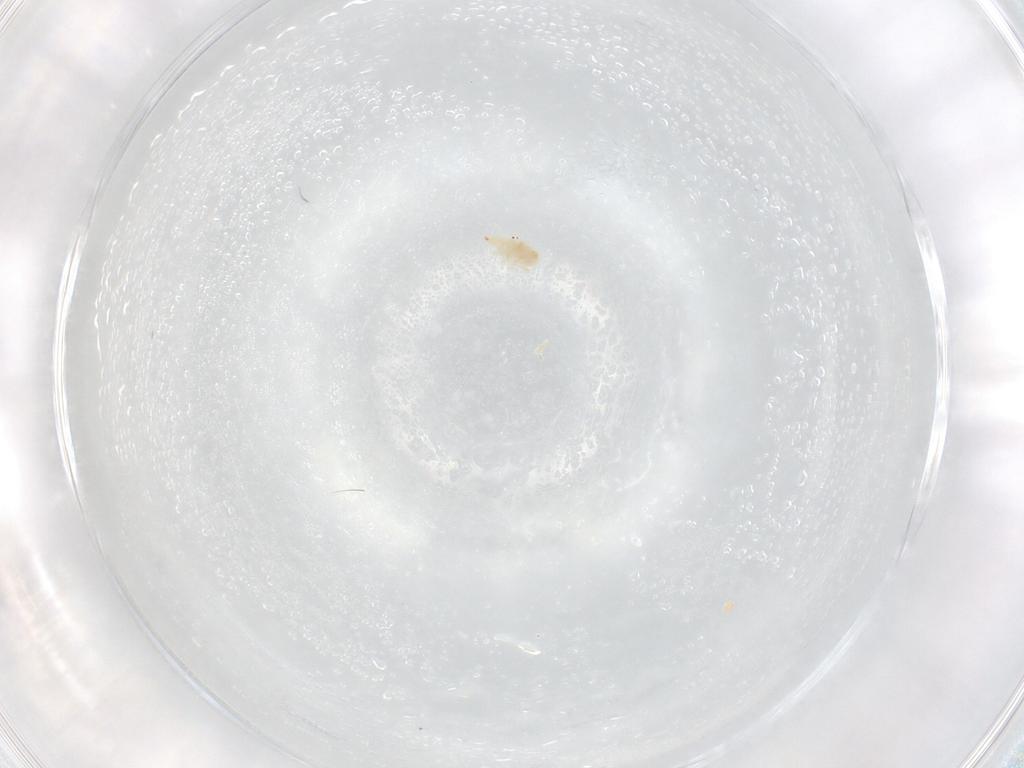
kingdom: Animalia
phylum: Arthropoda
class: Arachnida
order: Trombidiformes
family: Bdellidae
